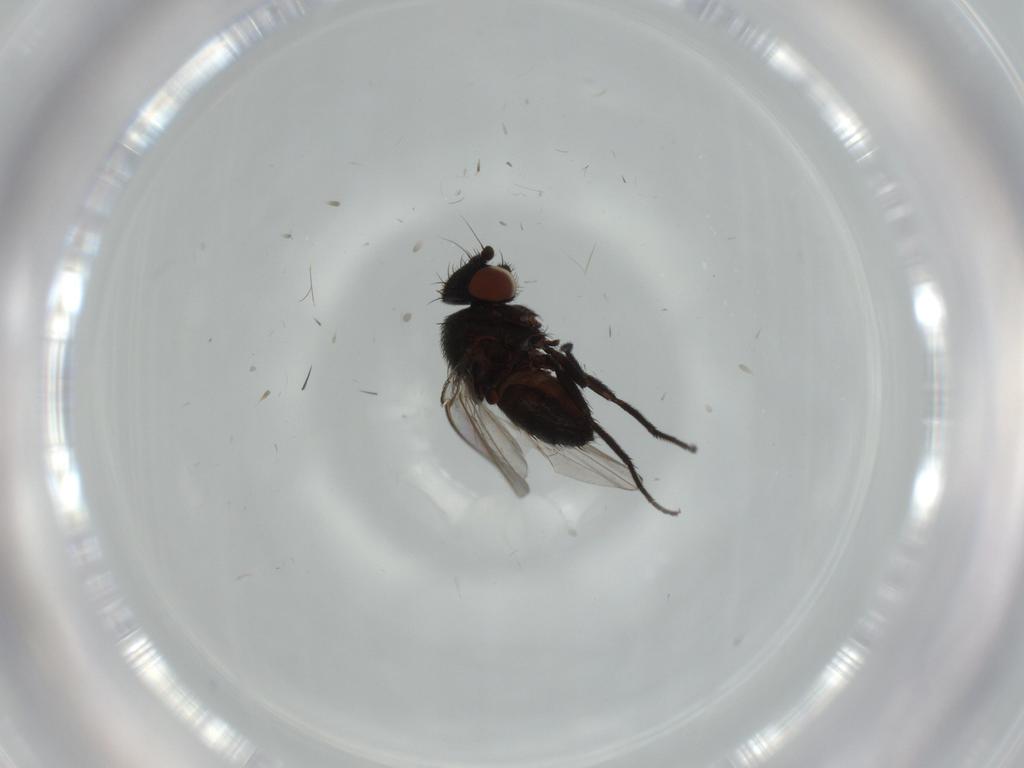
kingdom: Animalia
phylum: Arthropoda
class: Insecta
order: Diptera
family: Milichiidae
